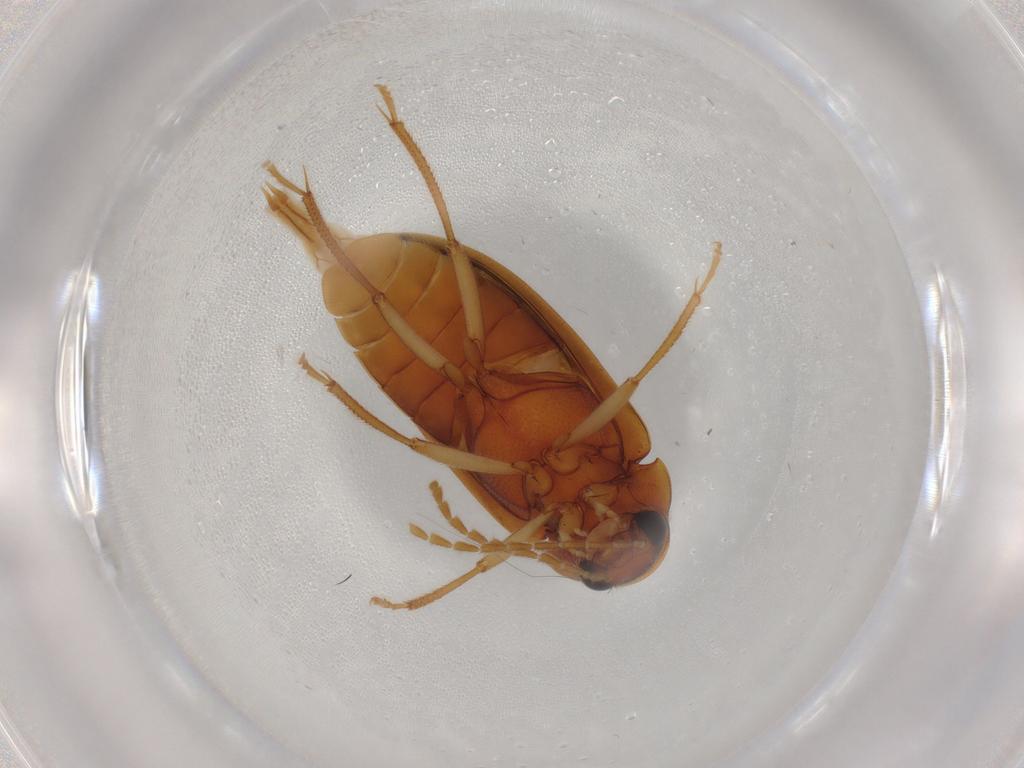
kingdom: Animalia
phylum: Arthropoda
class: Insecta
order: Coleoptera
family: Ptilodactylidae
